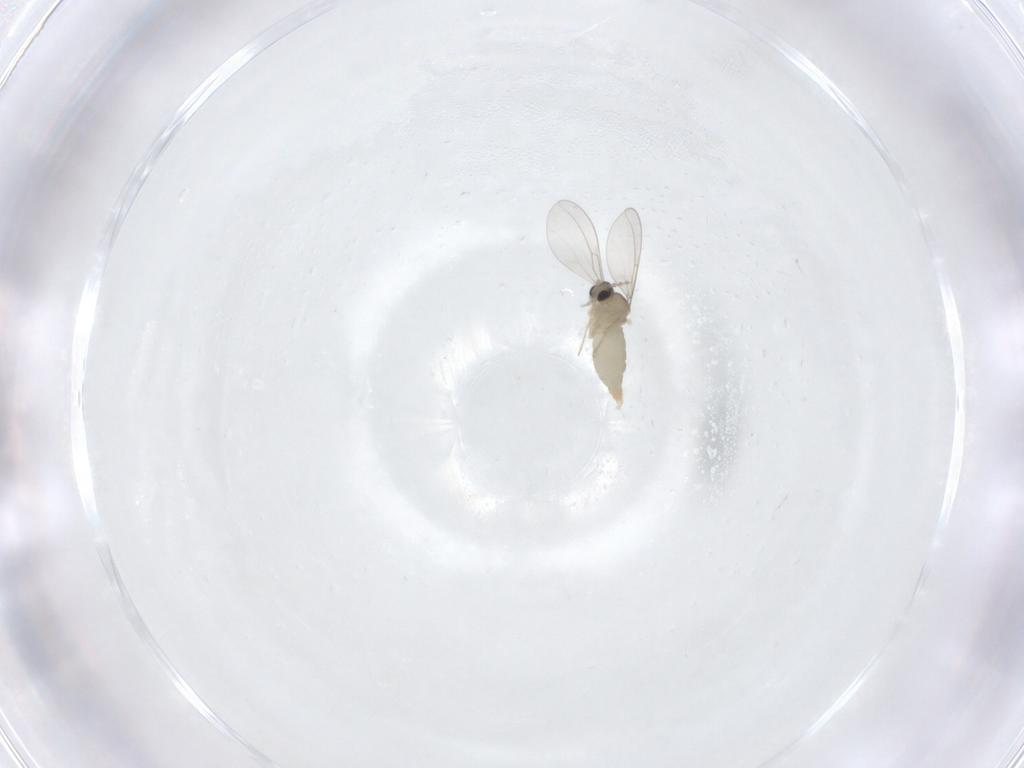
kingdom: Animalia
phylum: Arthropoda
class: Insecta
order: Diptera
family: Cecidomyiidae
